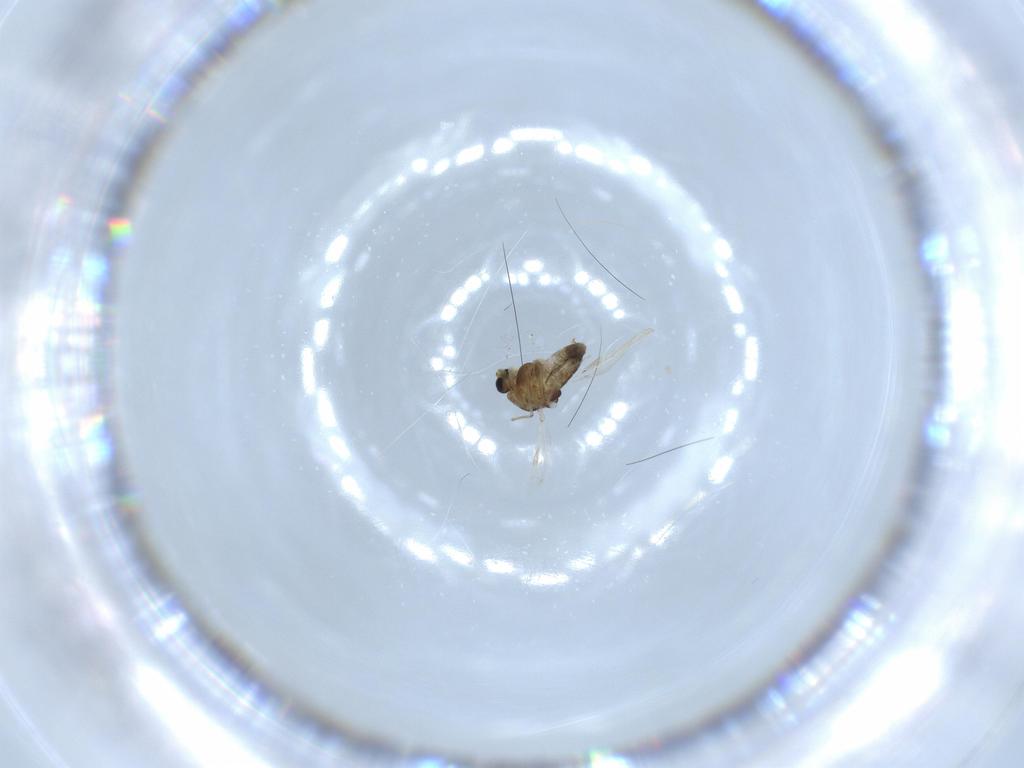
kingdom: Animalia
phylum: Arthropoda
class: Insecta
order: Diptera
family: Chironomidae
